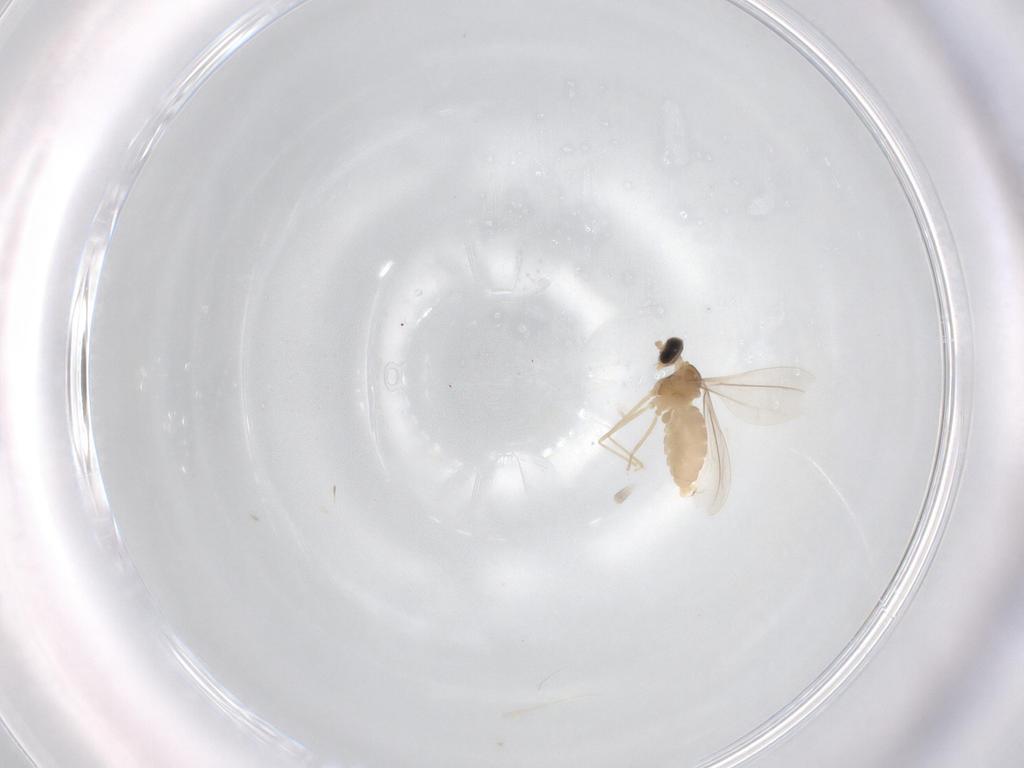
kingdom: Animalia
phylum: Arthropoda
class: Insecta
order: Diptera
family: Cecidomyiidae
